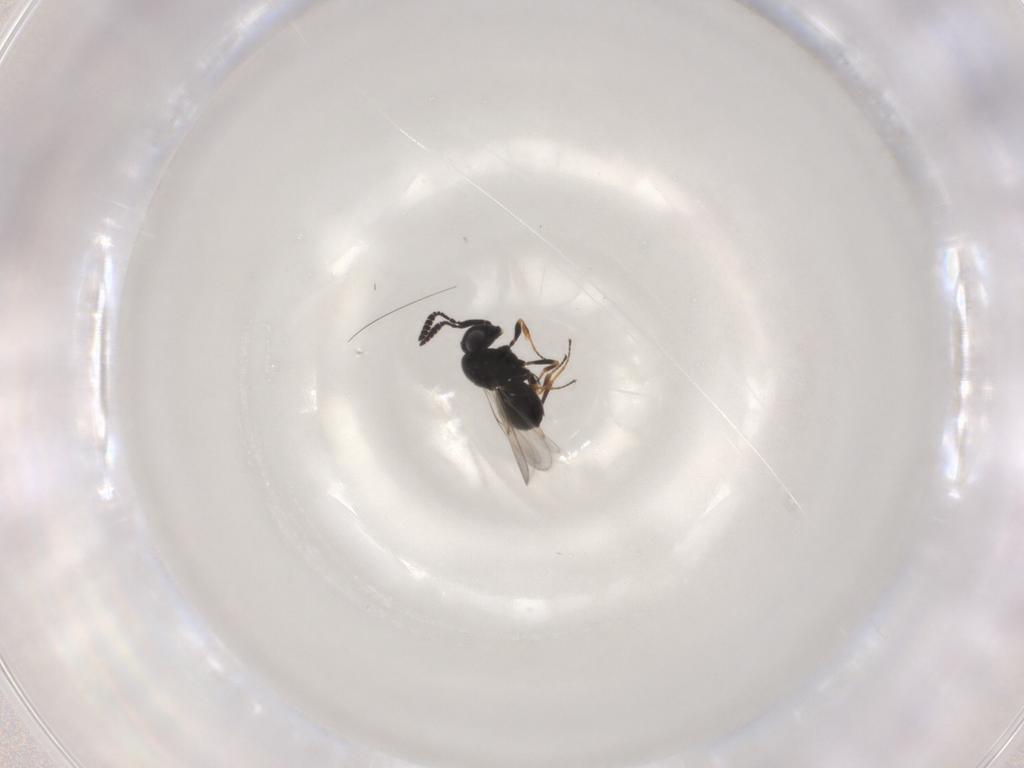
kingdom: Animalia
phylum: Arthropoda
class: Insecta
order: Hymenoptera
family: Scelionidae
